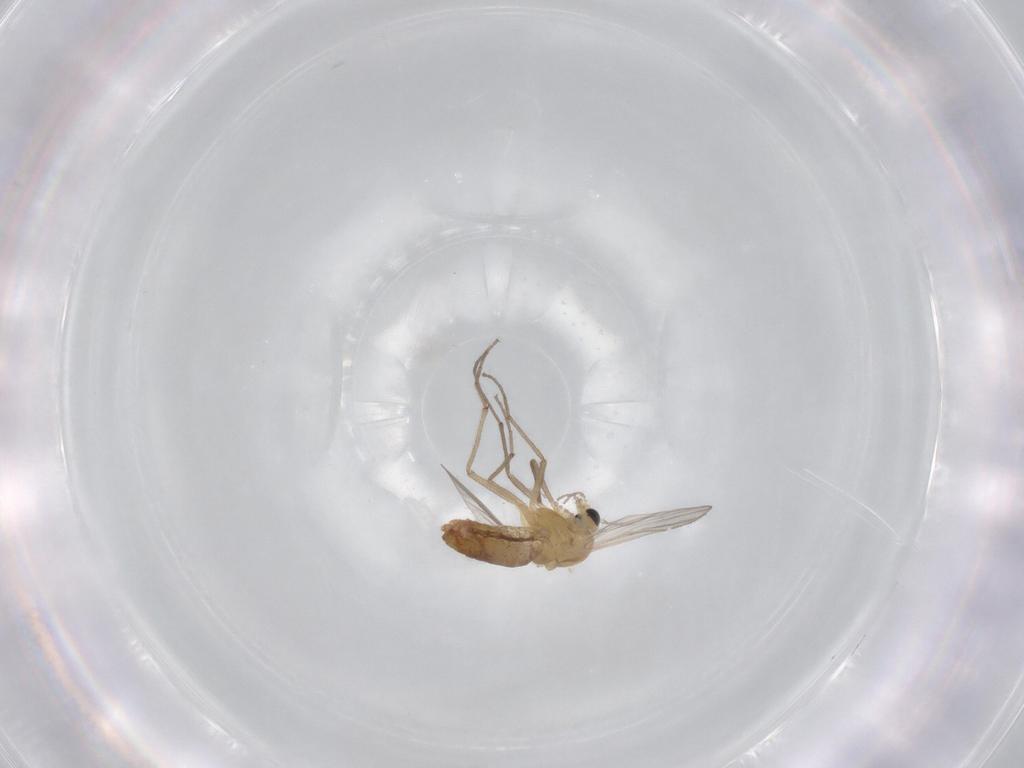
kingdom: Animalia
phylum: Arthropoda
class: Insecta
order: Diptera
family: Chironomidae
